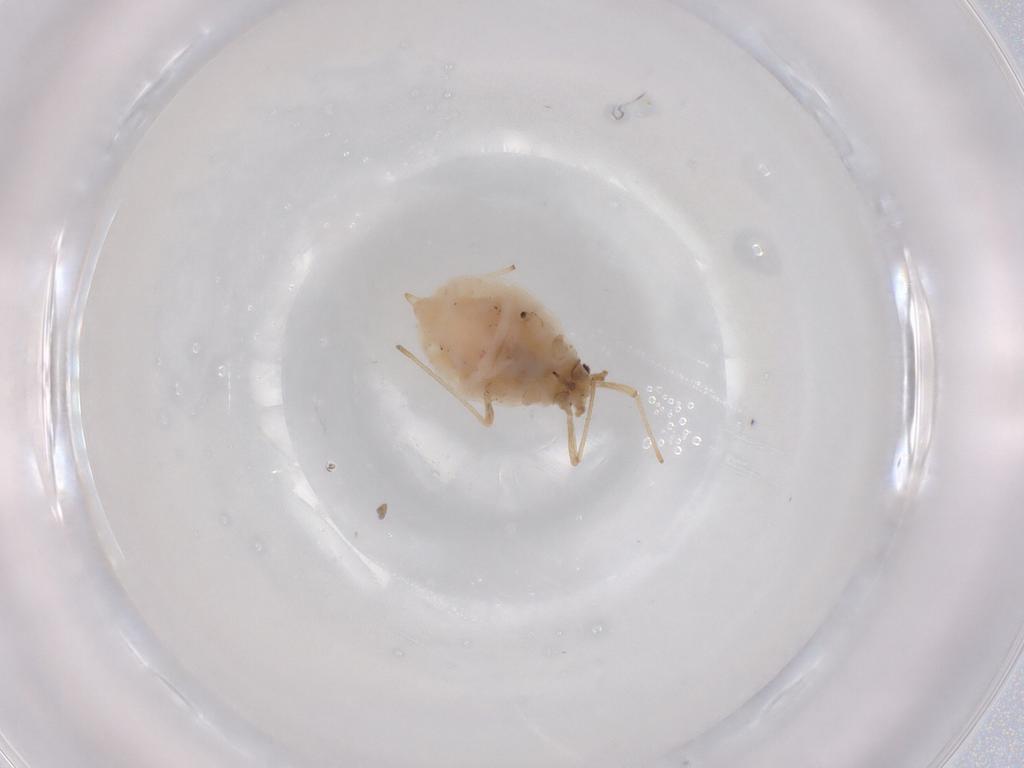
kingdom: Animalia
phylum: Arthropoda
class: Insecta
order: Hemiptera
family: Aphididae
